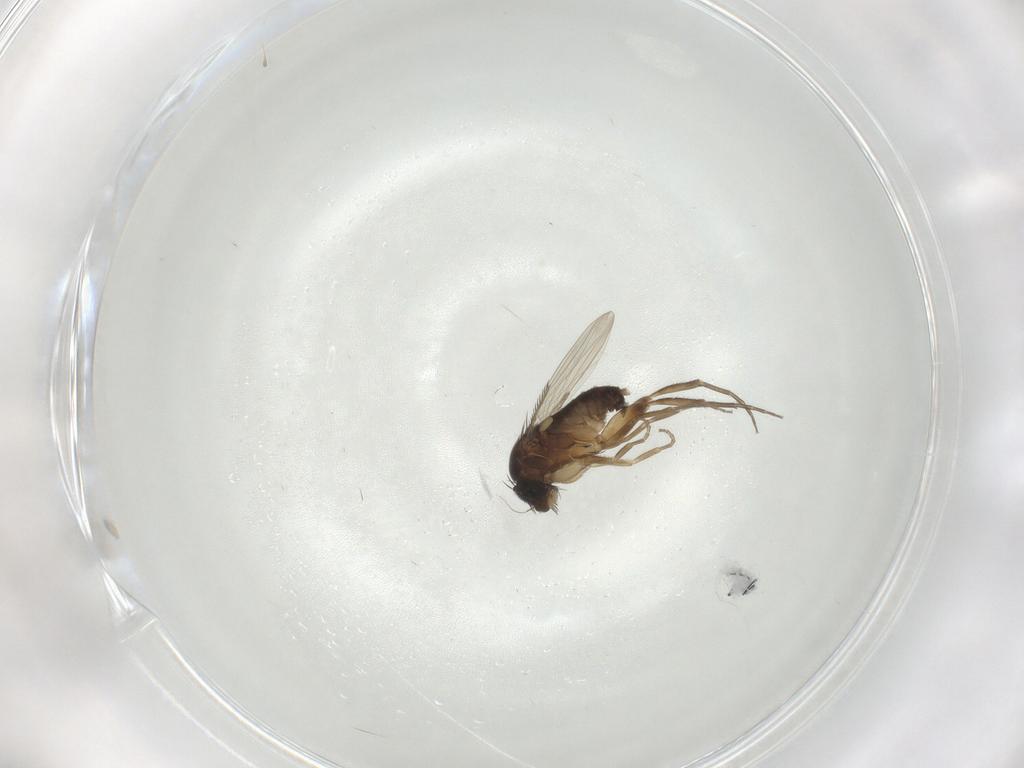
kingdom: Animalia
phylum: Arthropoda
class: Insecta
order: Diptera
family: Phoridae
